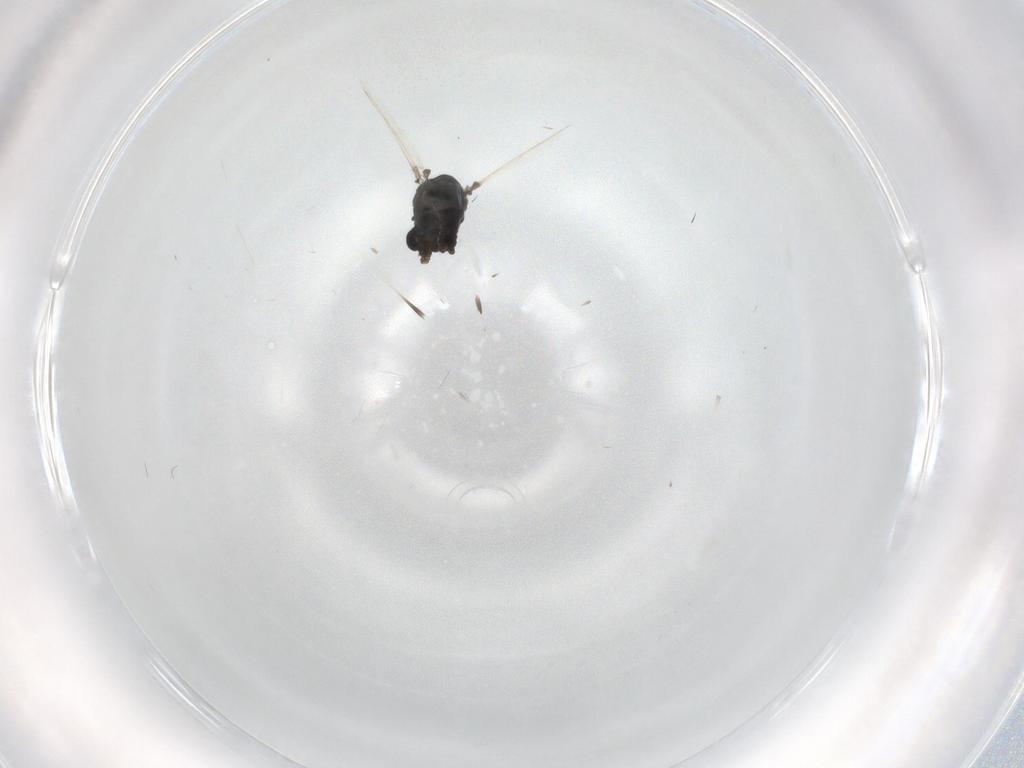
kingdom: Animalia
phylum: Arthropoda
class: Insecta
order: Diptera
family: Chironomidae
